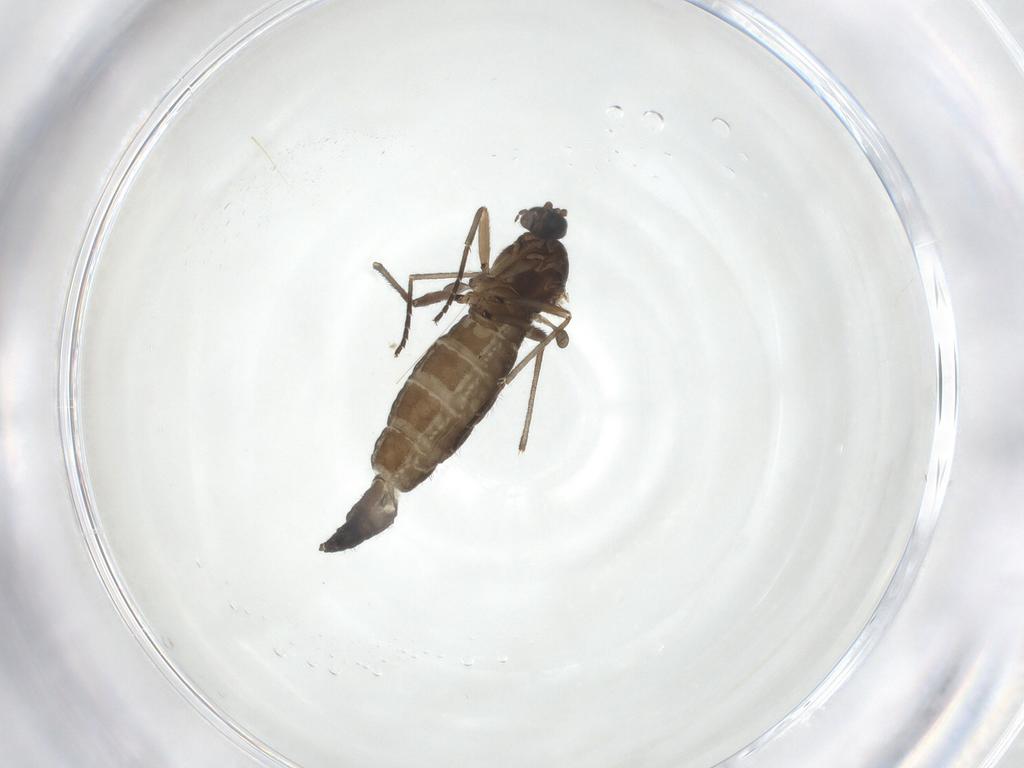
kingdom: Animalia
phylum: Arthropoda
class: Insecta
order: Diptera
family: Sciaridae
